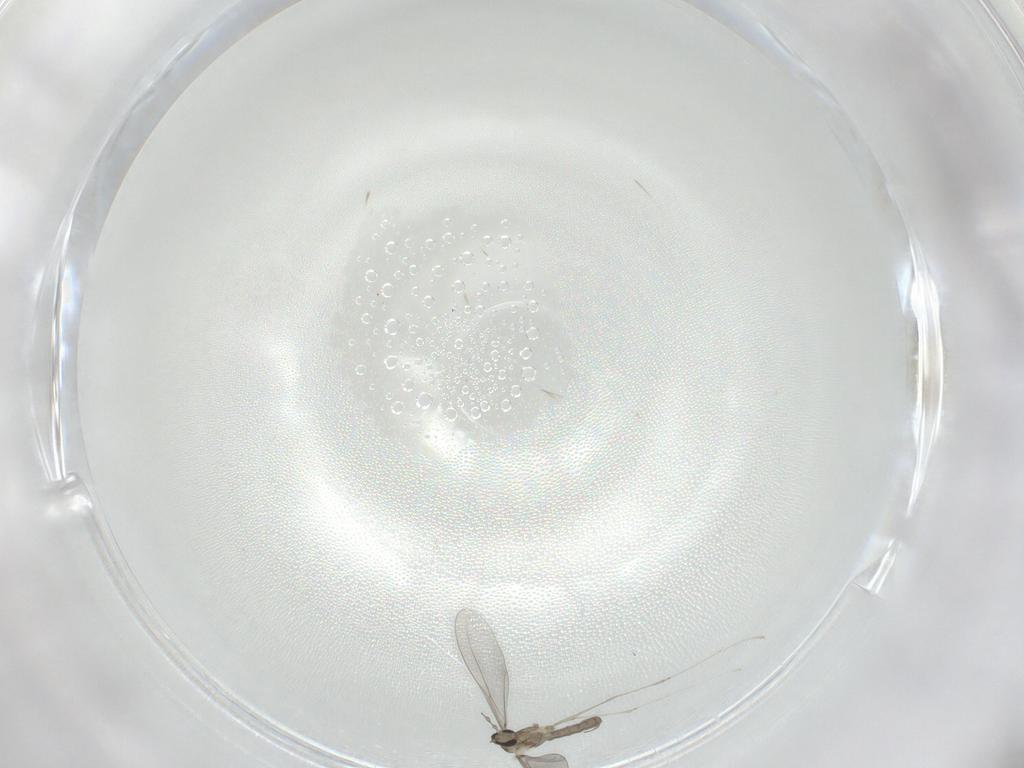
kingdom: Animalia
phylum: Arthropoda
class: Insecta
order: Diptera
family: Cecidomyiidae
